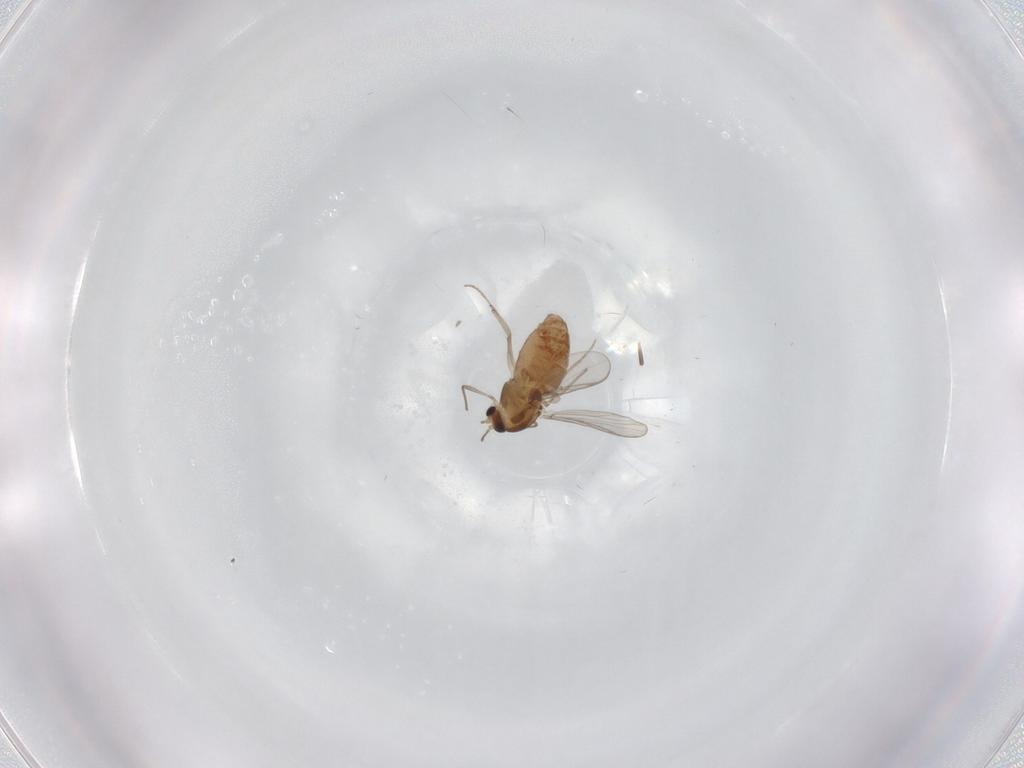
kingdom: Animalia
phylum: Arthropoda
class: Insecta
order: Diptera
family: Chironomidae
